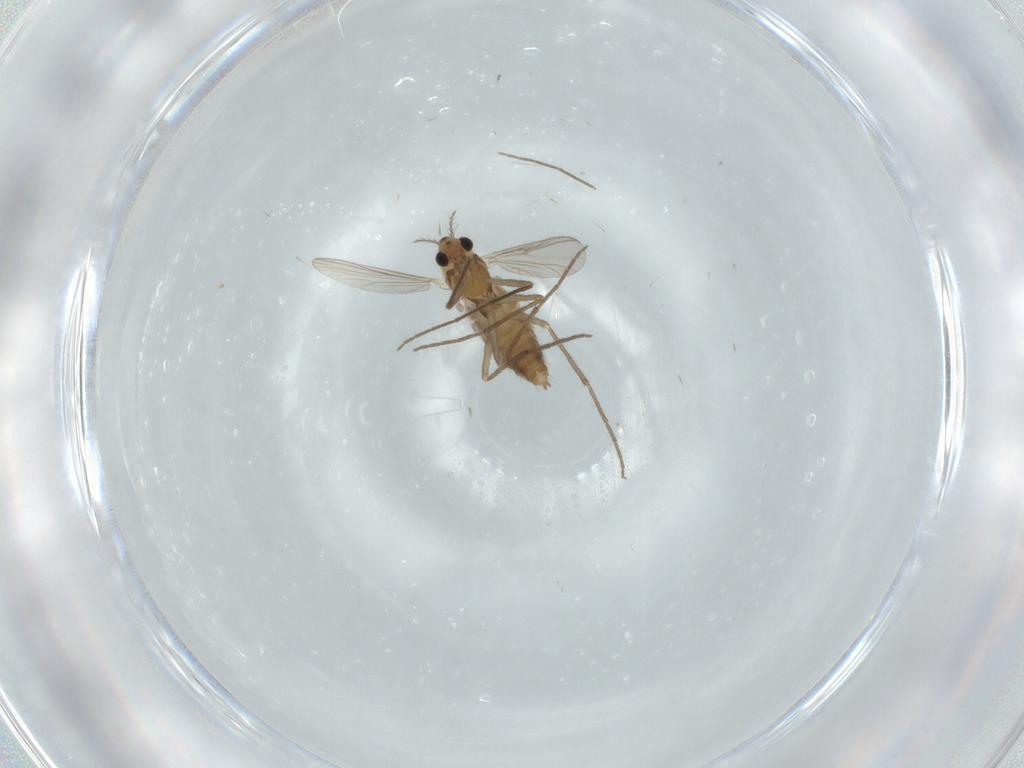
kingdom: Animalia
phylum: Arthropoda
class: Insecta
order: Diptera
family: Chironomidae
